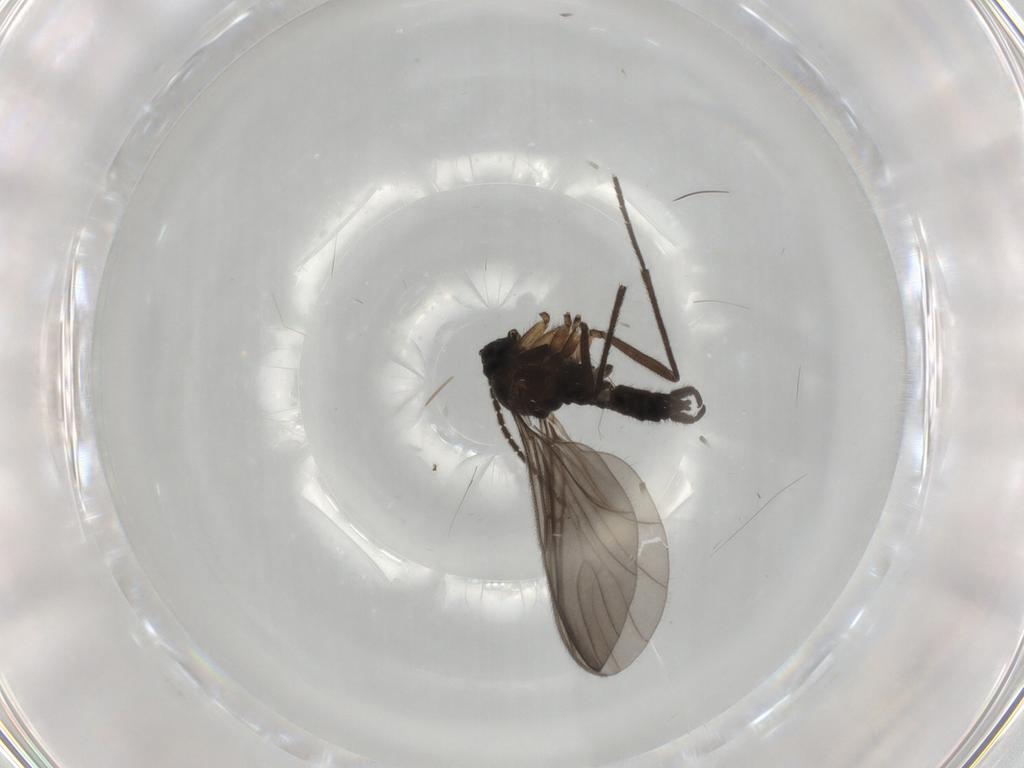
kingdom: Animalia
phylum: Arthropoda
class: Insecta
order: Diptera
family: Sciaridae
